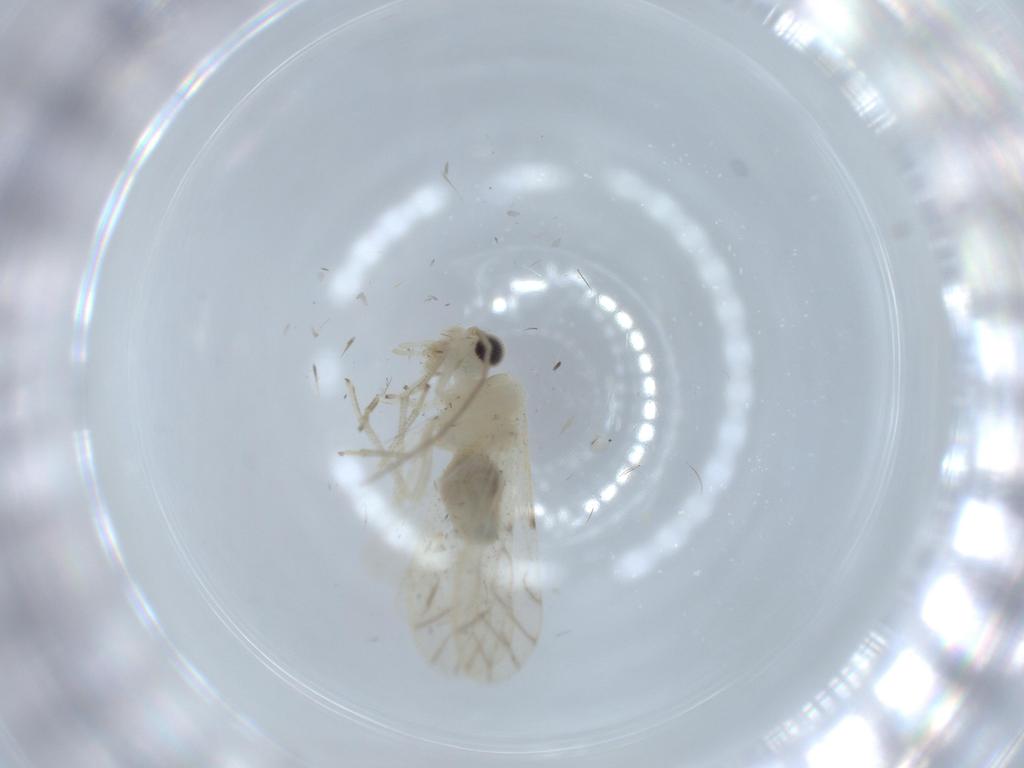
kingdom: Animalia
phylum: Arthropoda
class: Insecta
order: Psocodea
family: Caeciliusidae
